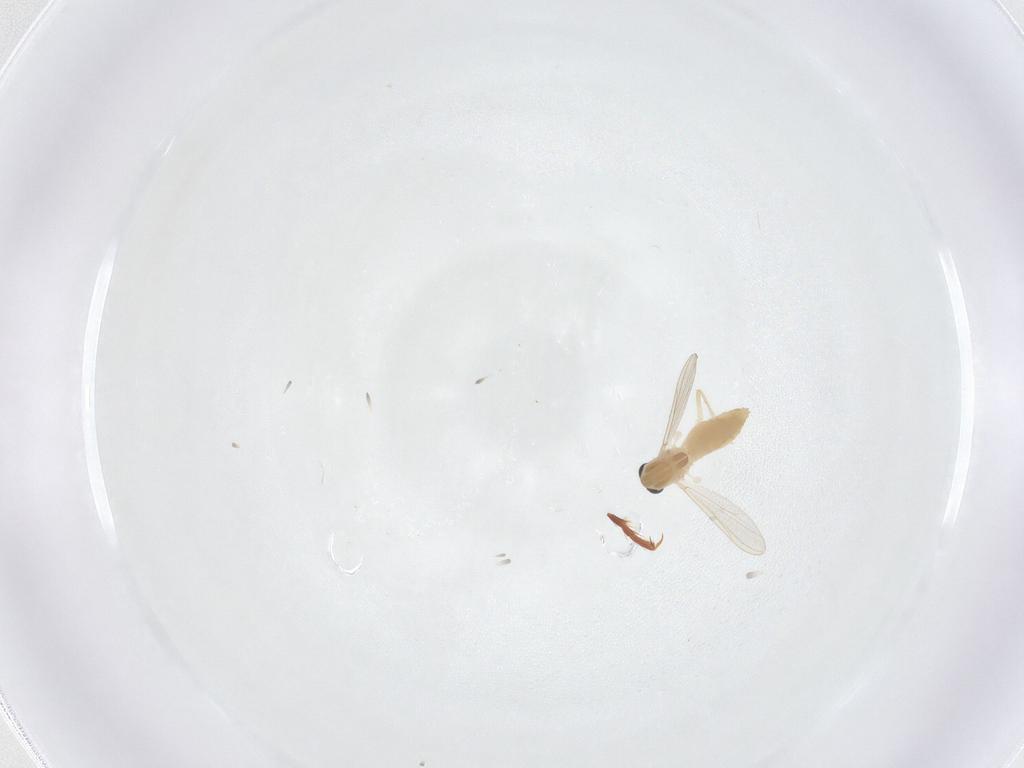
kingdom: Animalia
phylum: Arthropoda
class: Insecta
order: Diptera
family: Chironomidae
